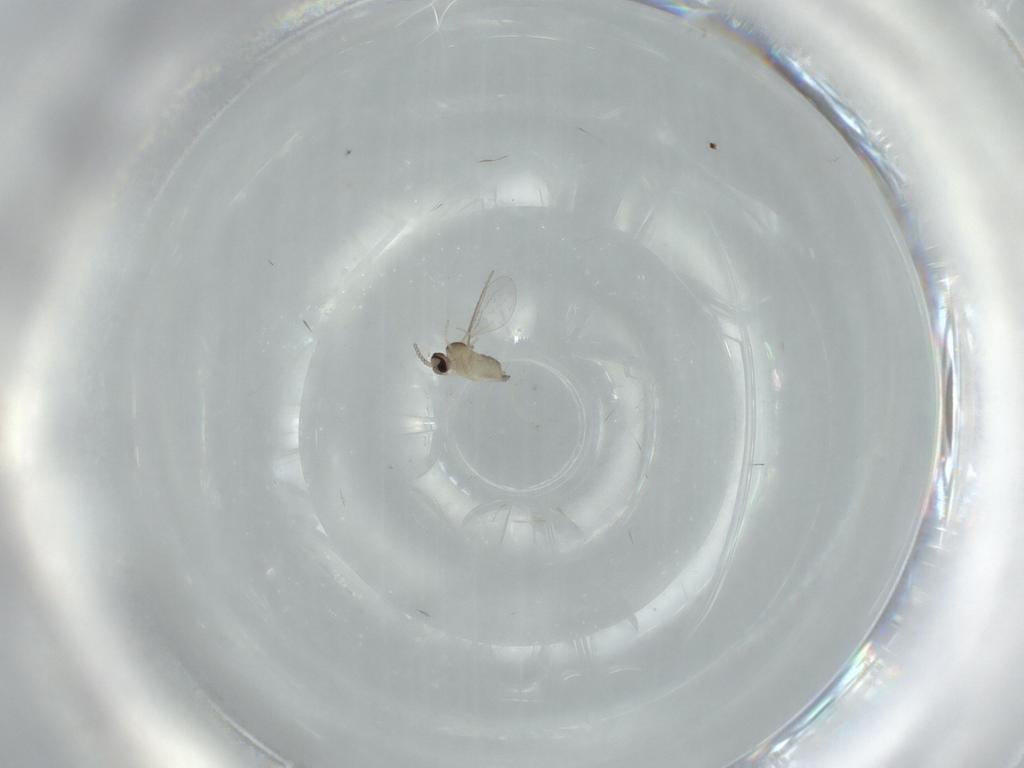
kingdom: Animalia
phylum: Arthropoda
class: Insecta
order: Diptera
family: Cecidomyiidae
